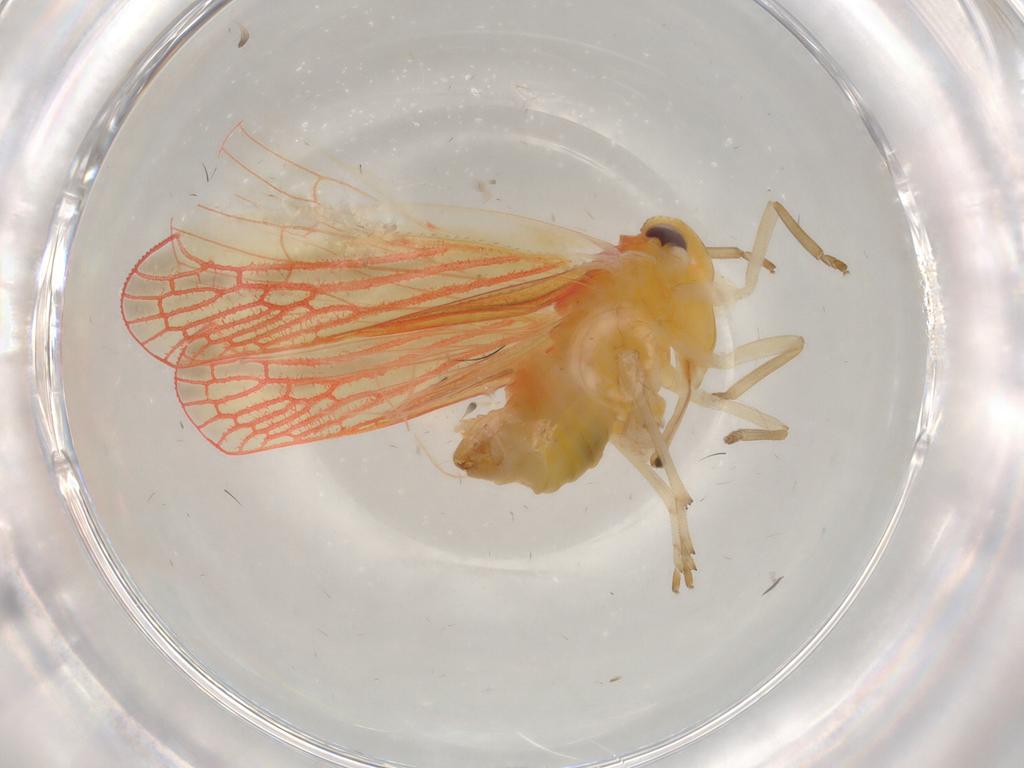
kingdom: Animalia
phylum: Arthropoda
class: Insecta
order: Hemiptera
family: Derbidae
